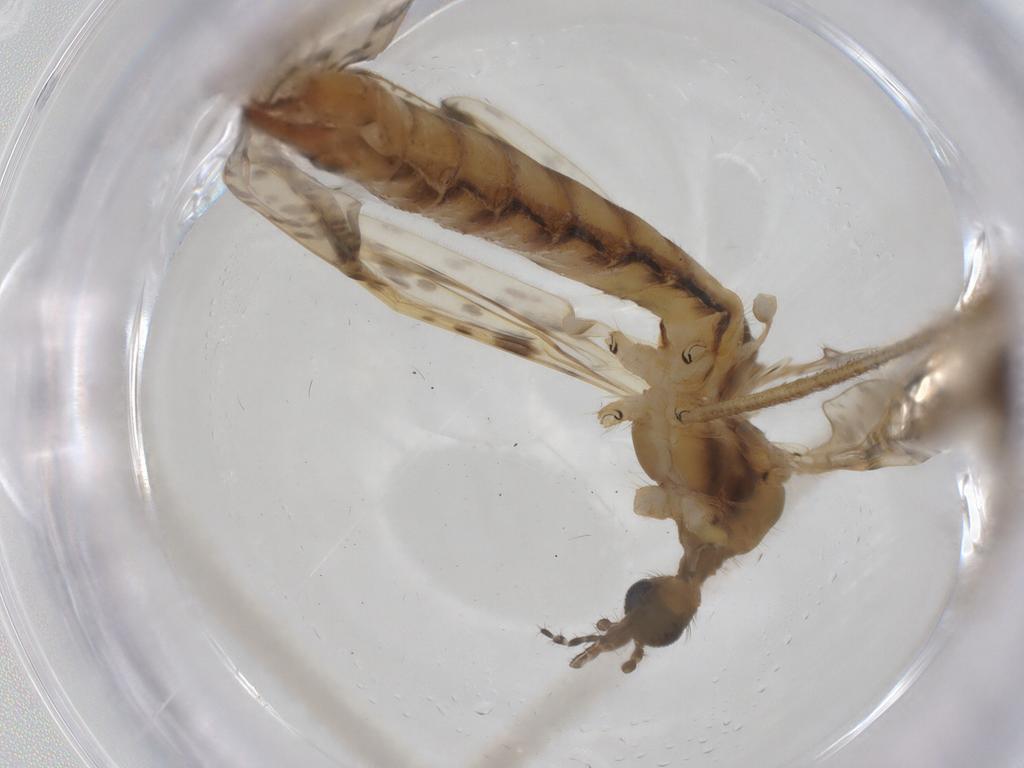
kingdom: Animalia
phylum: Arthropoda
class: Insecta
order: Diptera
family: Limoniidae
